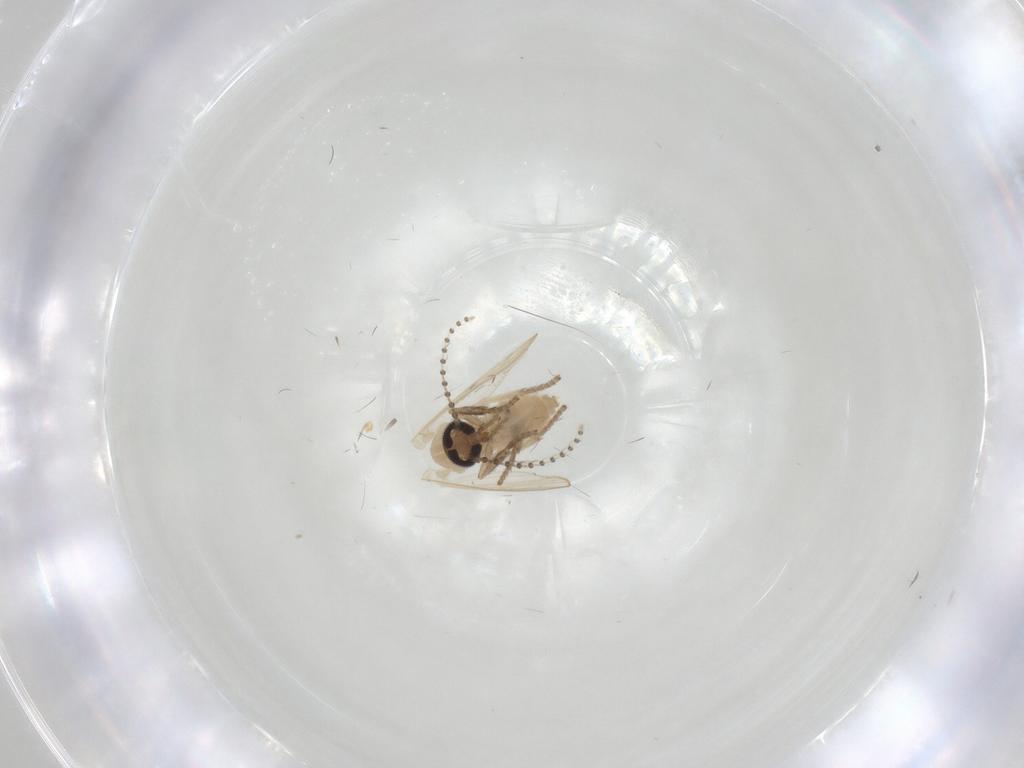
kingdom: Animalia
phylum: Arthropoda
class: Insecta
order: Diptera
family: Psychodidae
